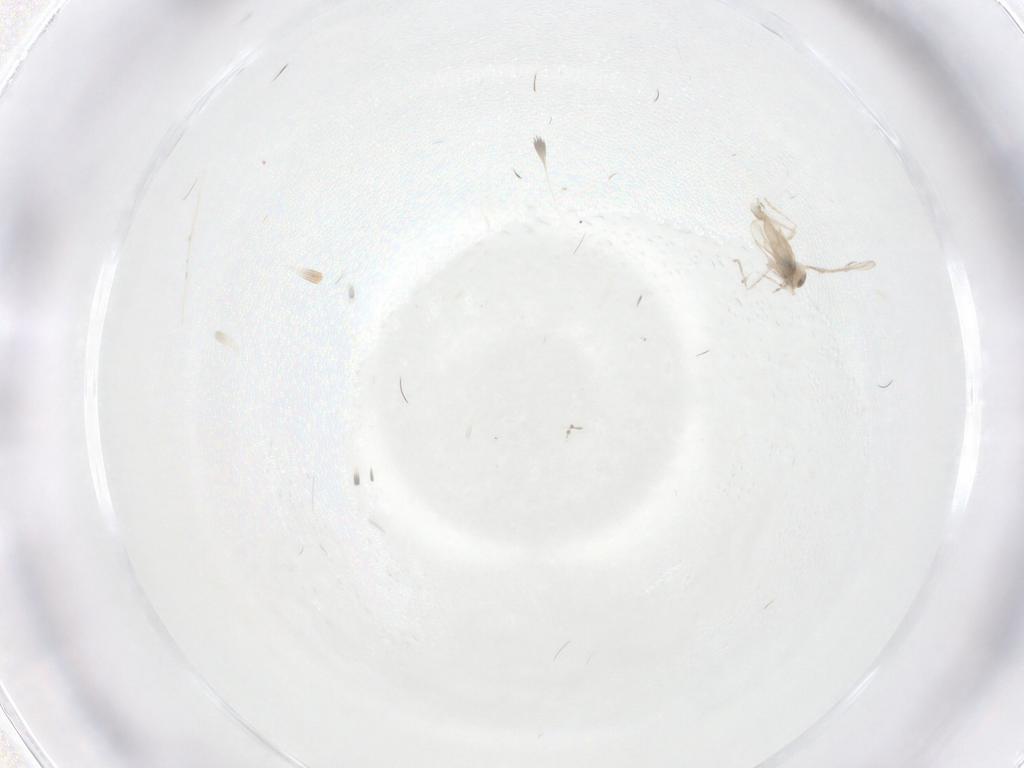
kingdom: Animalia
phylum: Arthropoda
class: Insecta
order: Diptera
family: Cecidomyiidae
